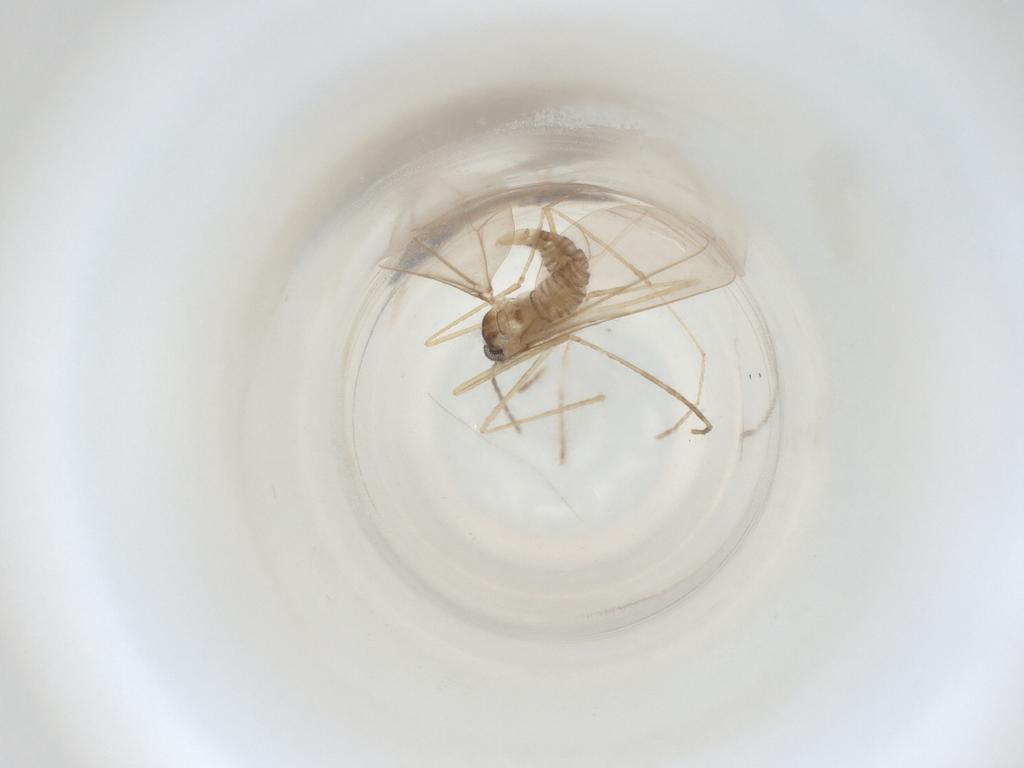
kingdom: Animalia
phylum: Arthropoda
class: Insecta
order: Diptera
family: Cecidomyiidae
